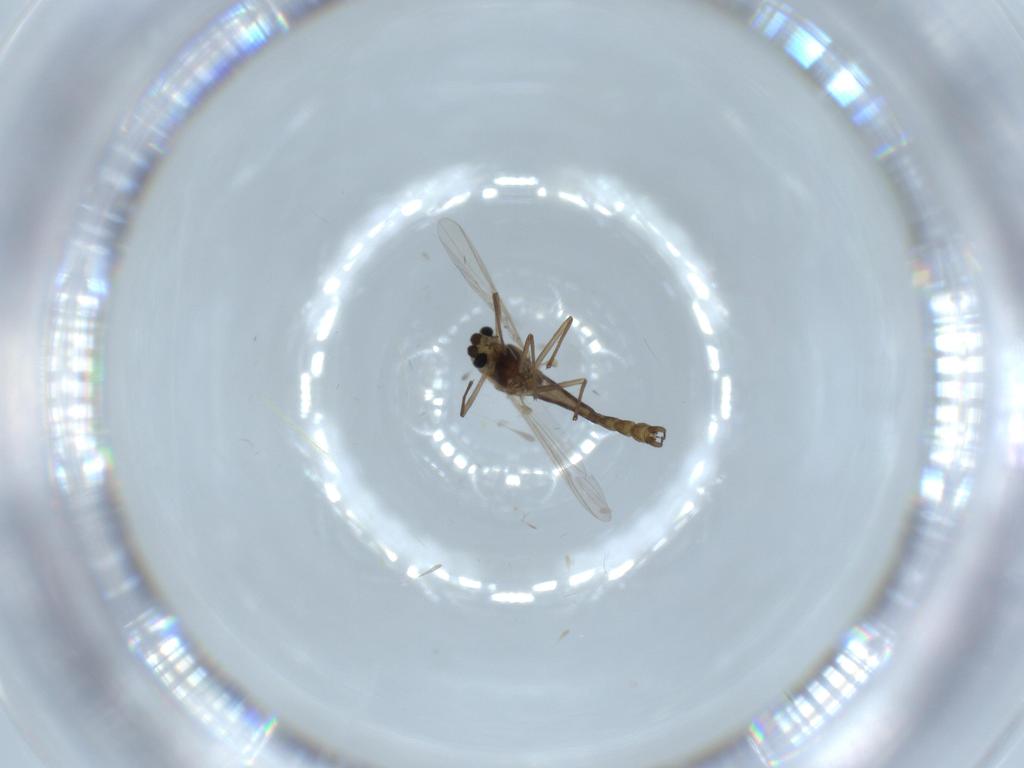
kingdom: Animalia
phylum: Arthropoda
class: Insecta
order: Diptera
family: Chironomidae
